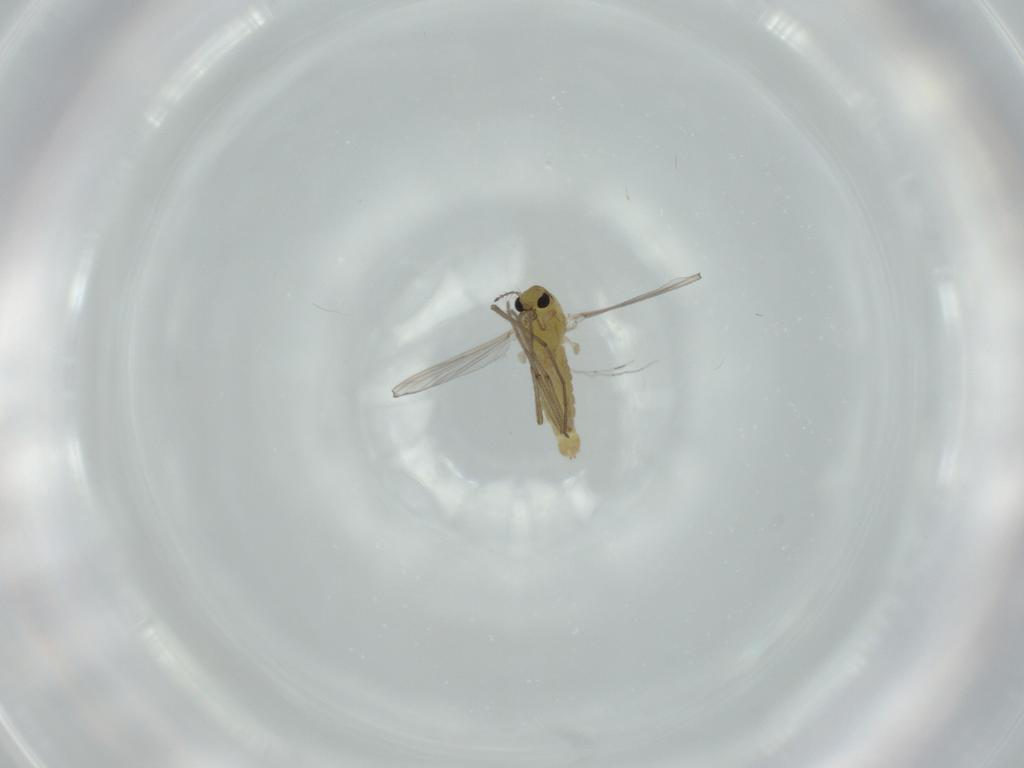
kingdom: Animalia
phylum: Arthropoda
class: Insecta
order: Diptera
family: Chironomidae
